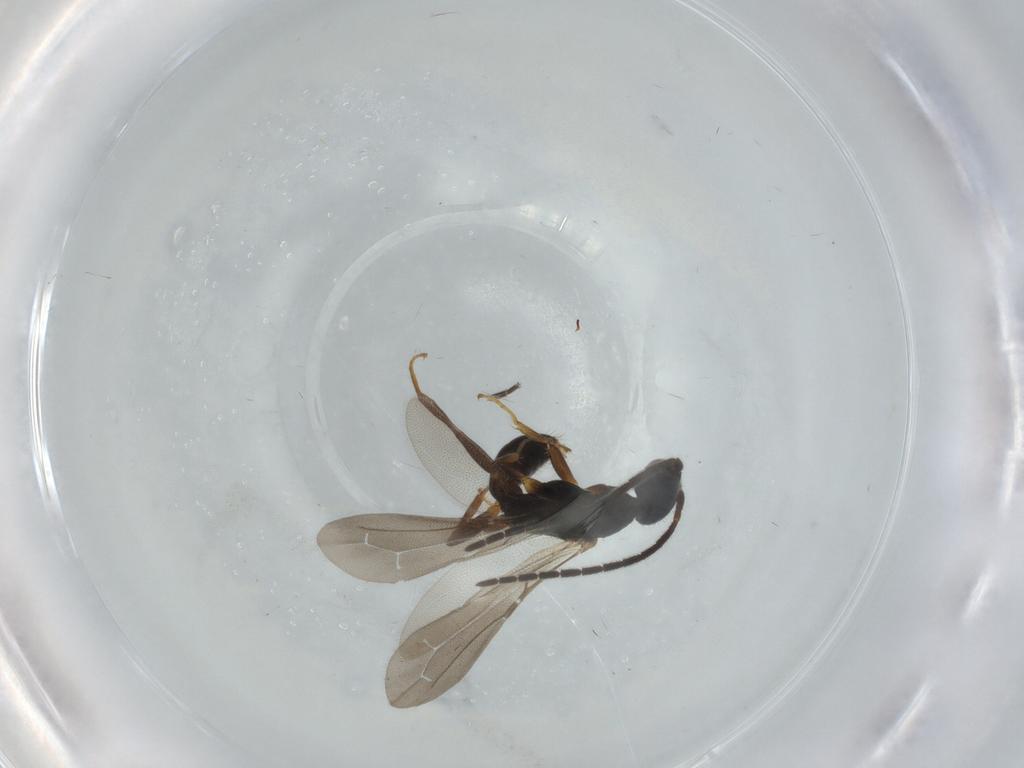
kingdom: Animalia
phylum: Arthropoda
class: Insecta
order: Hymenoptera
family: Bethylidae
